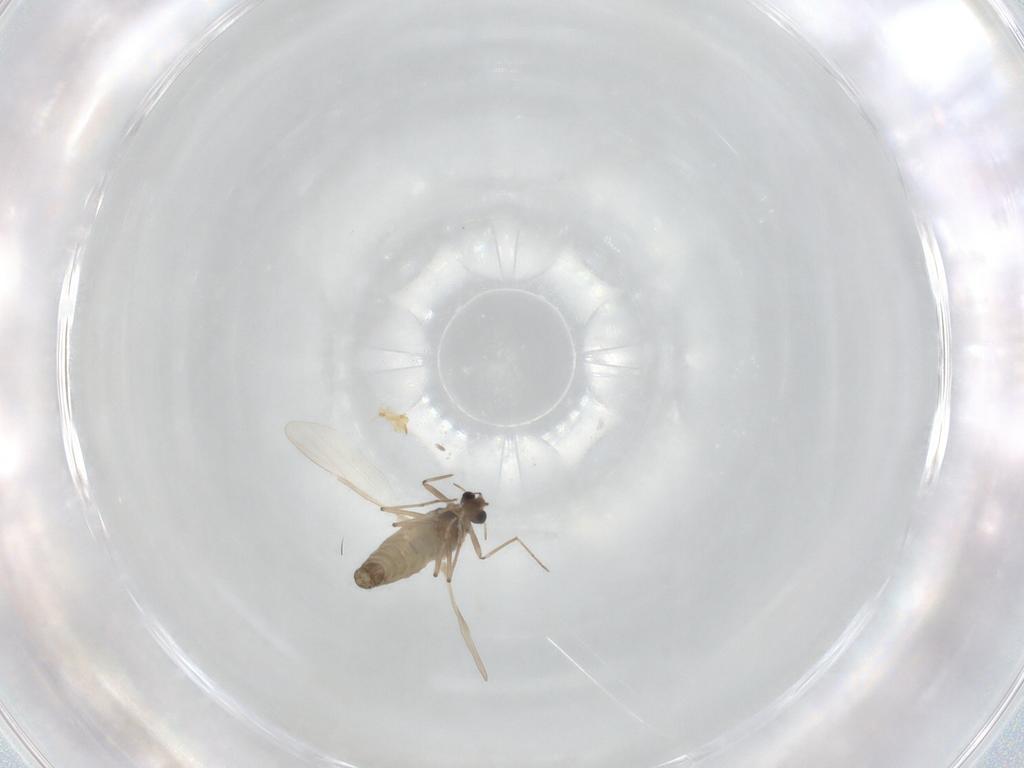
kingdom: Animalia
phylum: Arthropoda
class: Insecta
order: Diptera
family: Chironomidae
